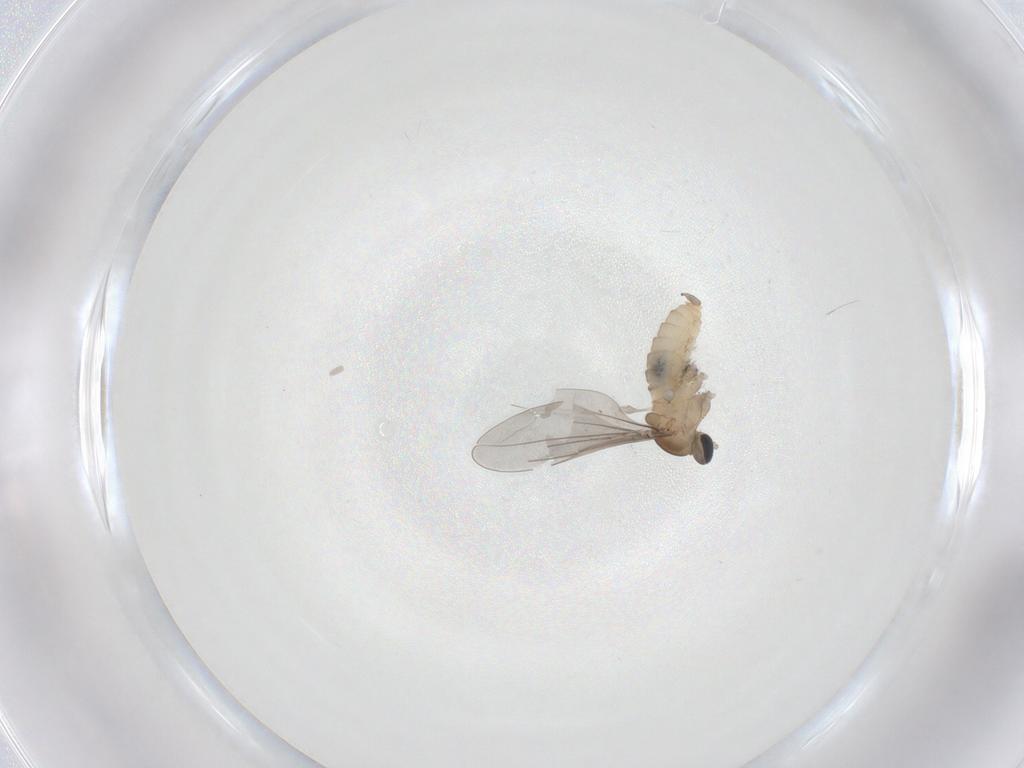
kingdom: Animalia
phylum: Arthropoda
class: Insecta
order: Diptera
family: Cecidomyiidae
